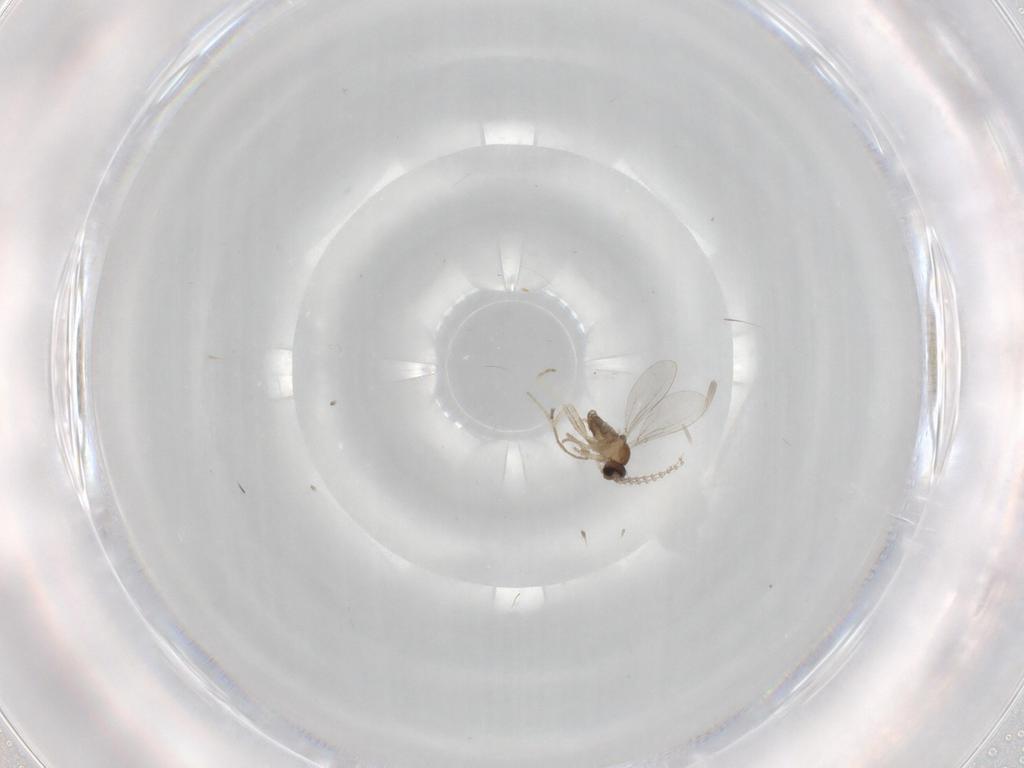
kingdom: Animalia
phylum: Arthropoda
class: Insecta
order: Diptera
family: Cecidomyiidae
